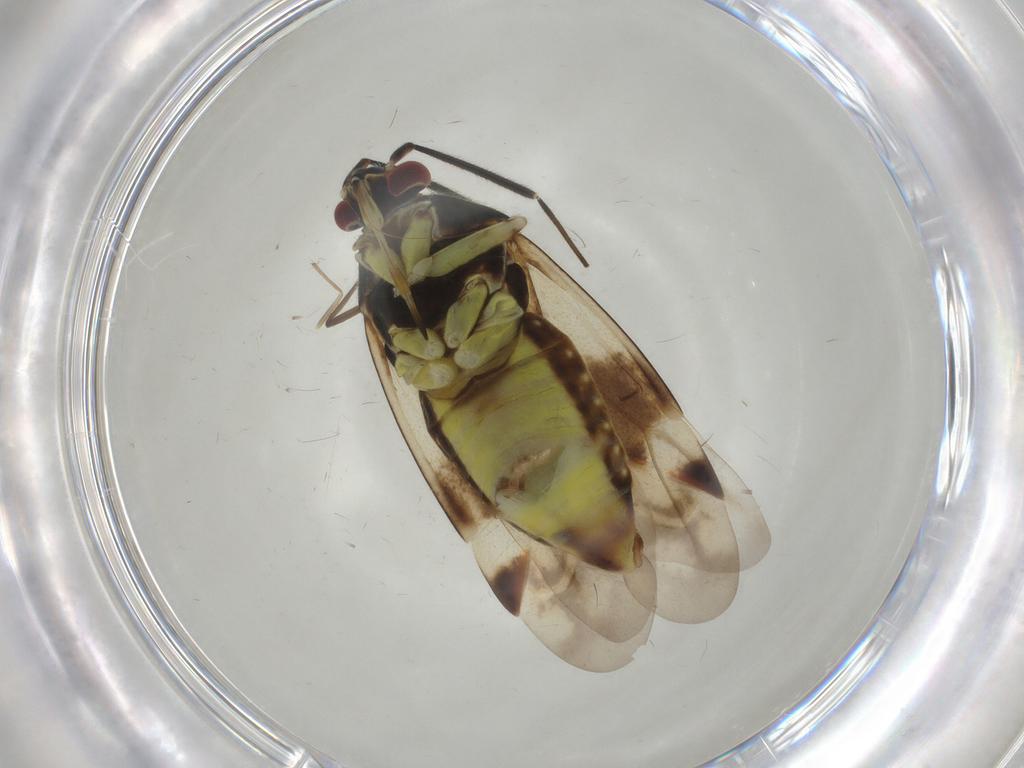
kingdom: Animalia
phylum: Arthropoda
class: Insecta
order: Hemiptera
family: Miridae
